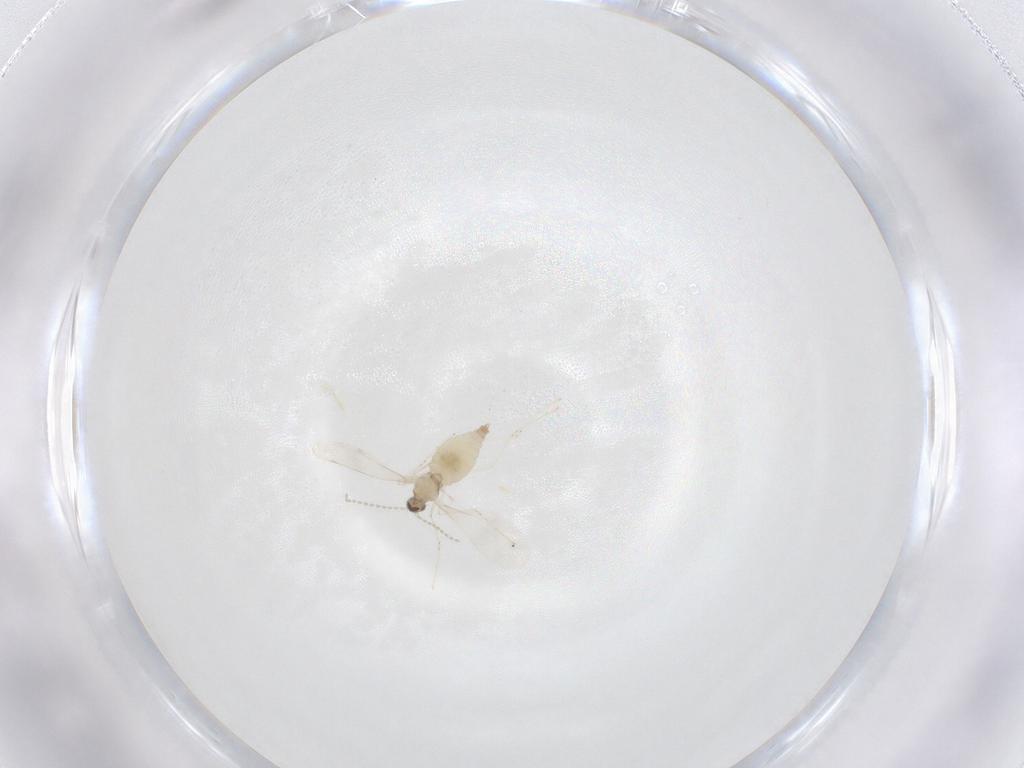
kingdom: Animalia
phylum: Arthropoda
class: Insecta
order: Diptera
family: Cecidomyiidae
